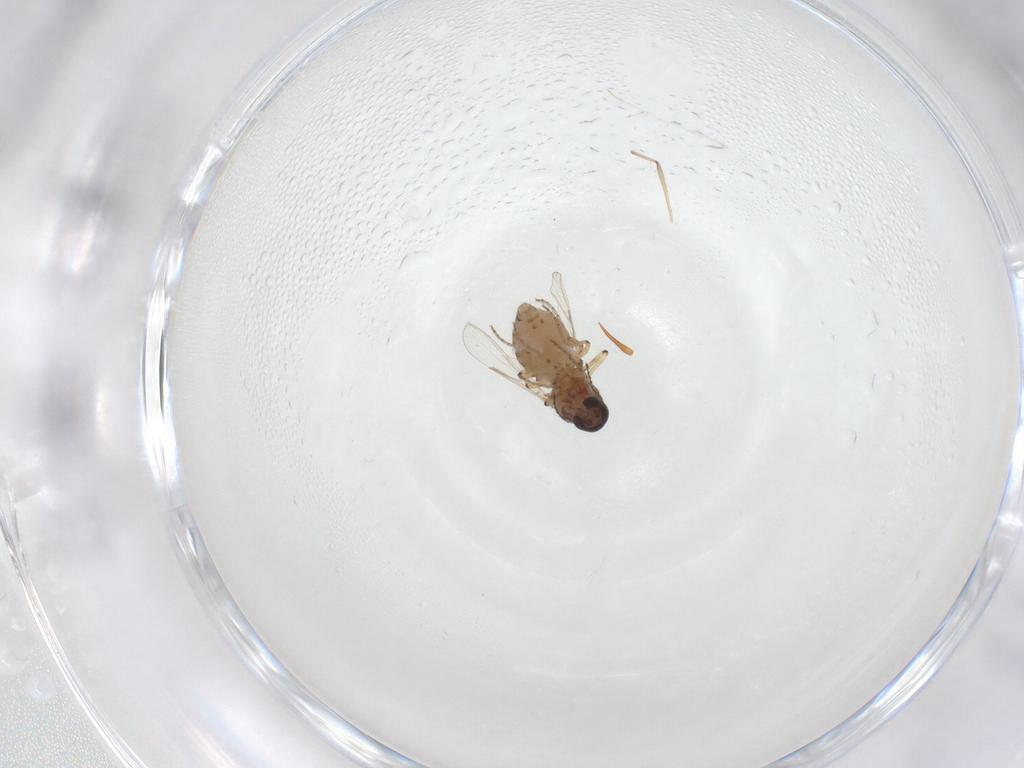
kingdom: Animalia
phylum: Arthropoda
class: Insecta
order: Diptera
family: Ceratopogonidae
